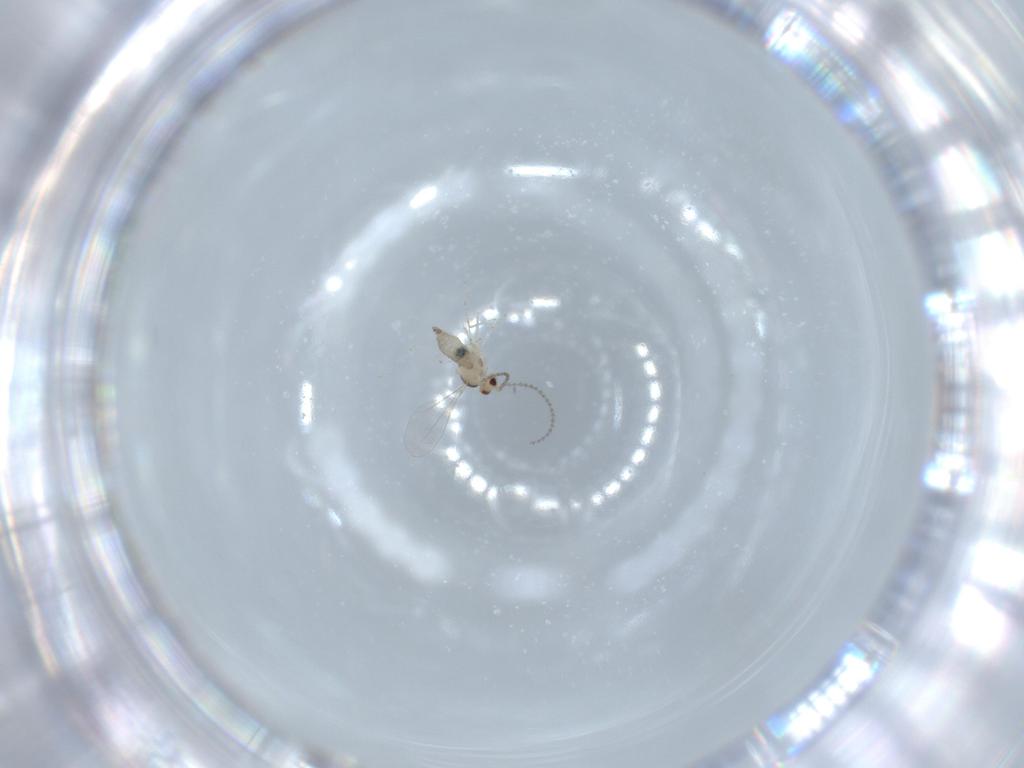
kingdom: Animalia
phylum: Arthropoda
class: Insecta
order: Diptera
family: Cecidomyiidae
